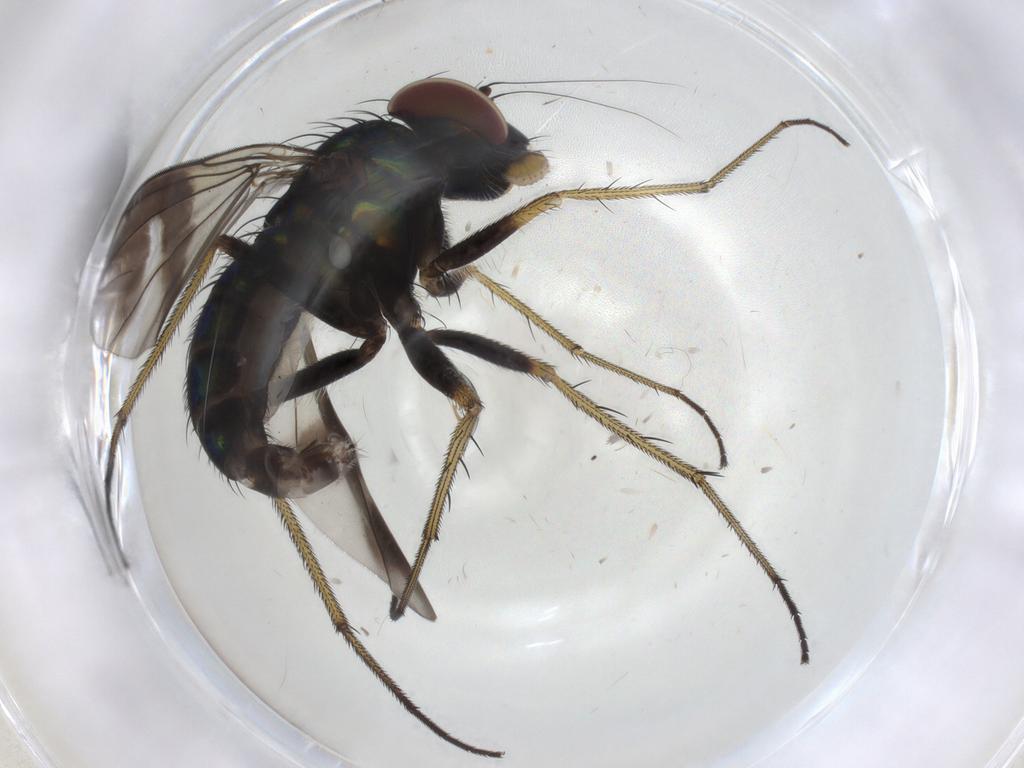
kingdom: Animalia
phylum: Arthropoda
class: Insecta
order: Diptera
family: Dolichopodidae
